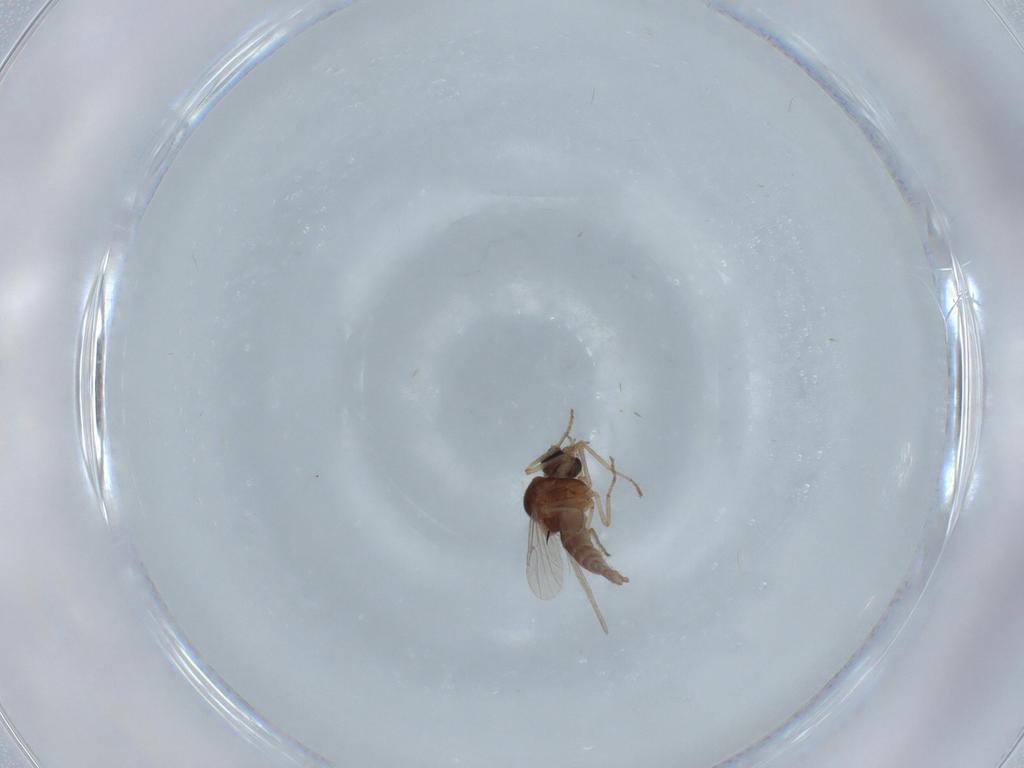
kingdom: Animalia
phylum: Arthropoda
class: Insecta
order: Diptera
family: Ceratopogonidae
